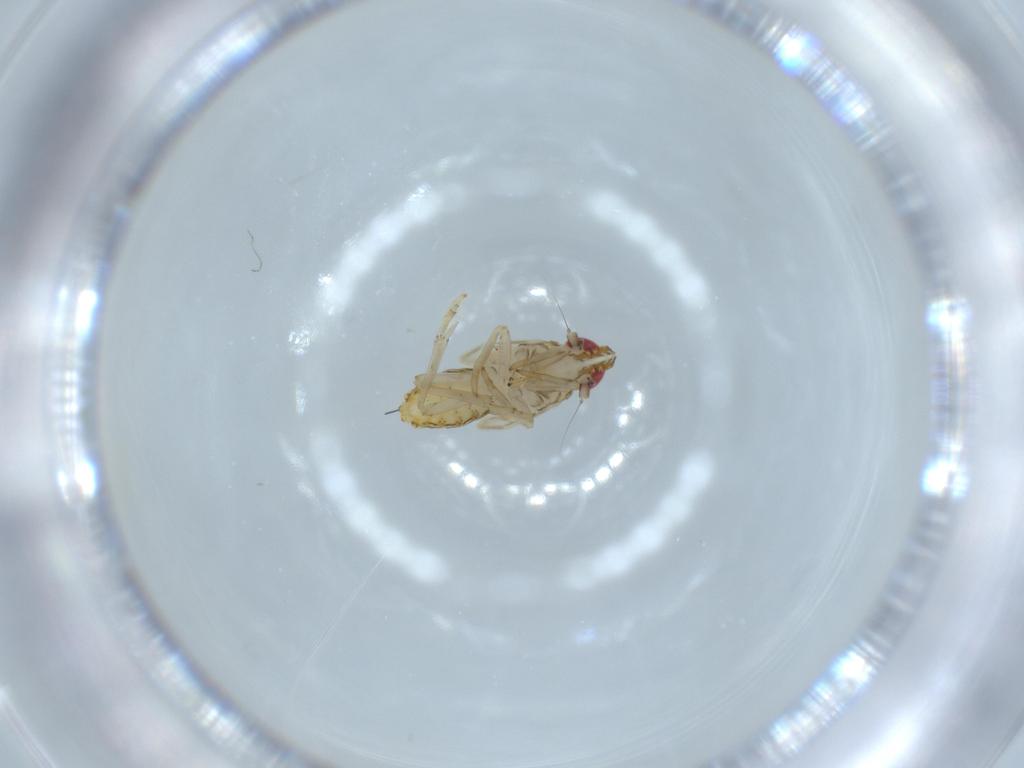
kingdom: Animalia
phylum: Arthropoda
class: Insecta
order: Hemiptera
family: Delphacidae
